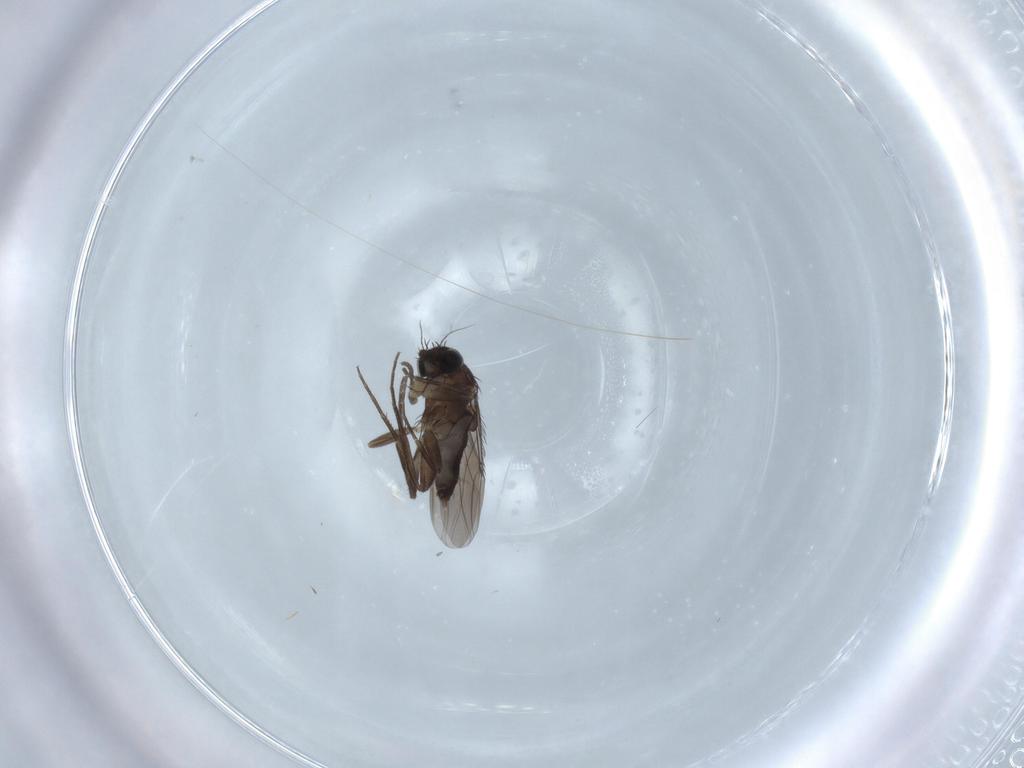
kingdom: Animalia
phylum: Arthropoda
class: Insecta
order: Diptera
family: Phoridae
